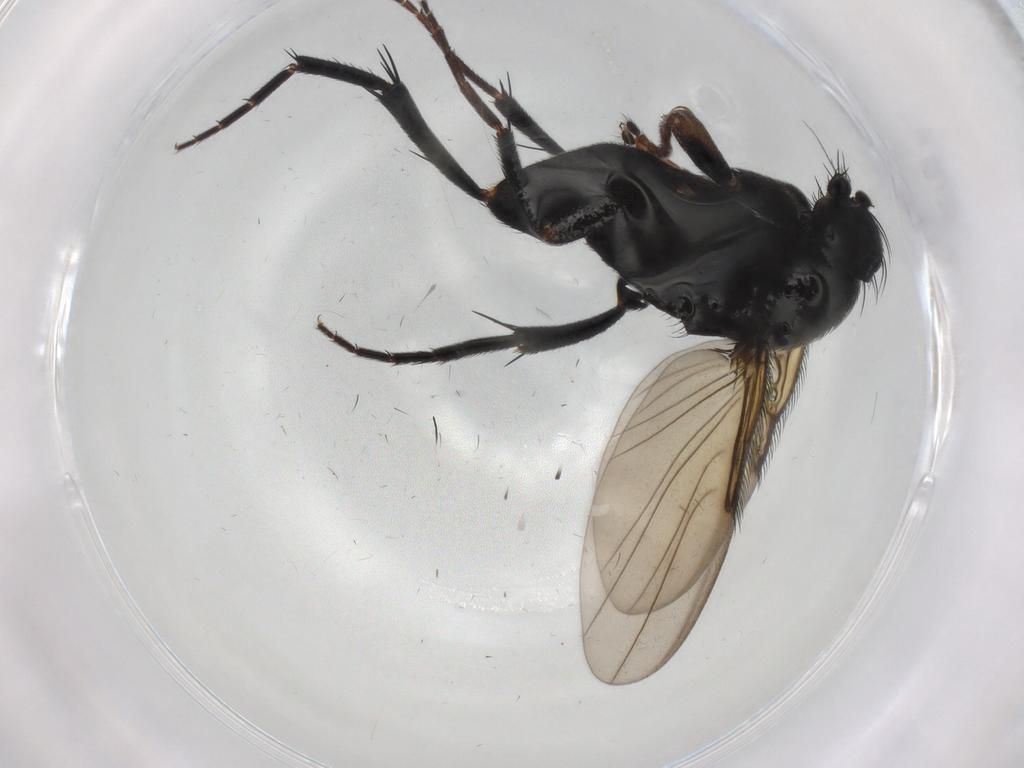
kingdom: Animalia
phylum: Arthropoda
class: Insecta
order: Diptera
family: Phoridae
